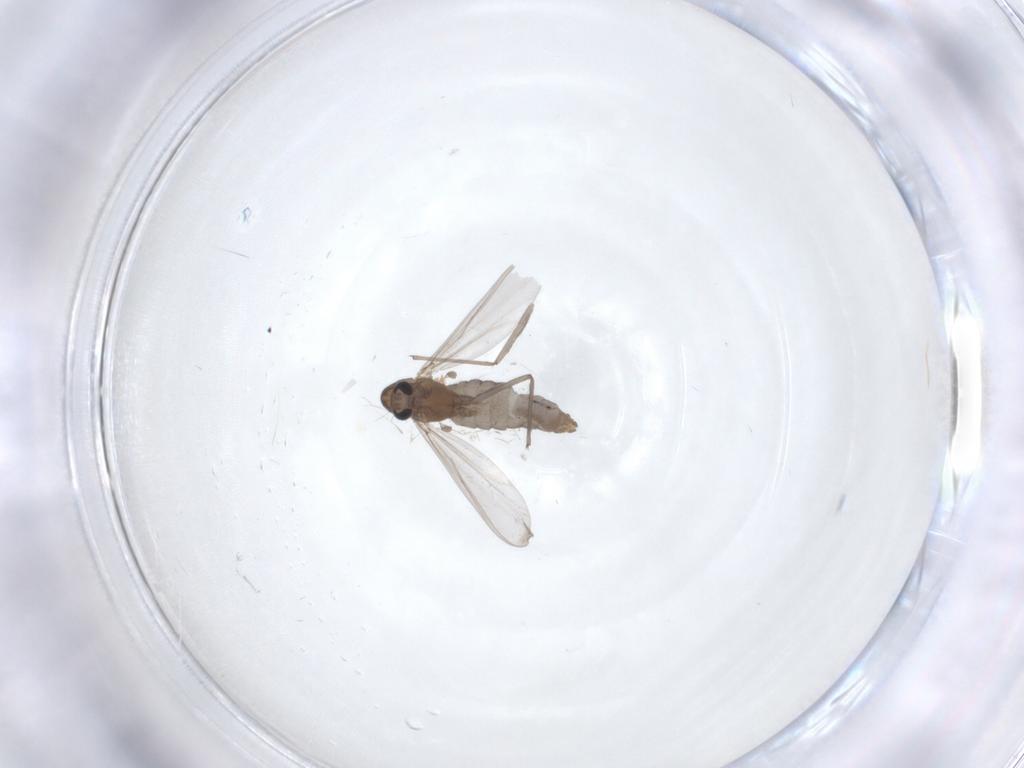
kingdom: Animalia
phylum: Arthropoda
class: Insecta
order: Diptera
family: Chironomidae
